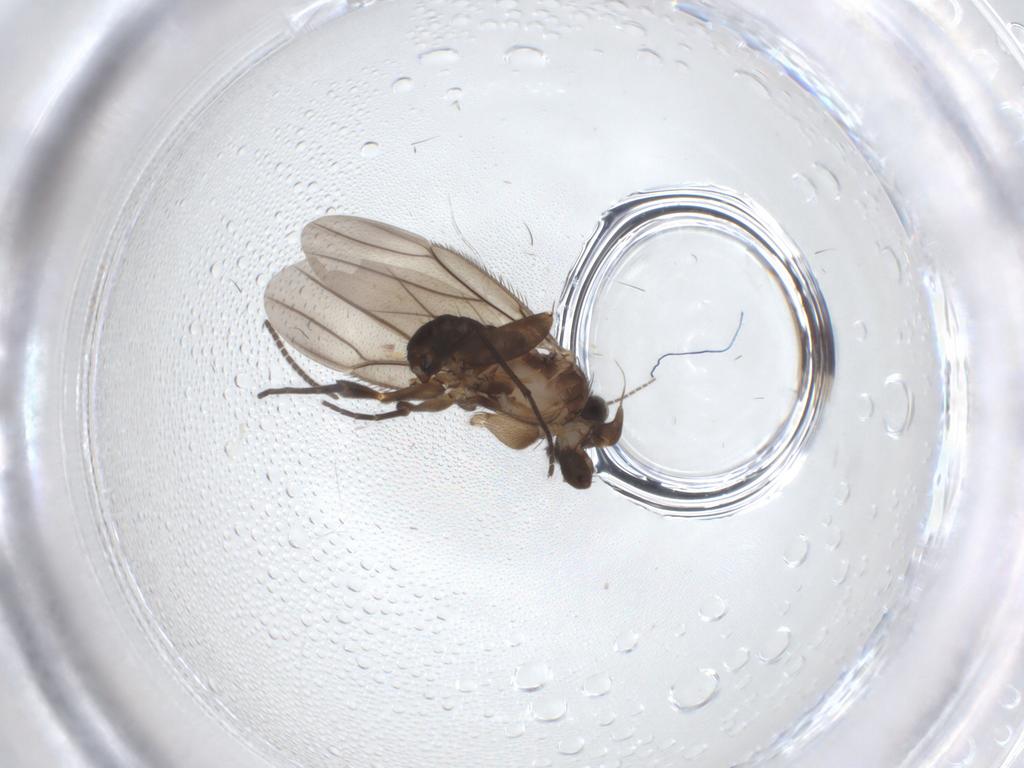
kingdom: Animalia
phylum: Arthropoda
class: Insecta
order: Diptera
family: Phoridae
